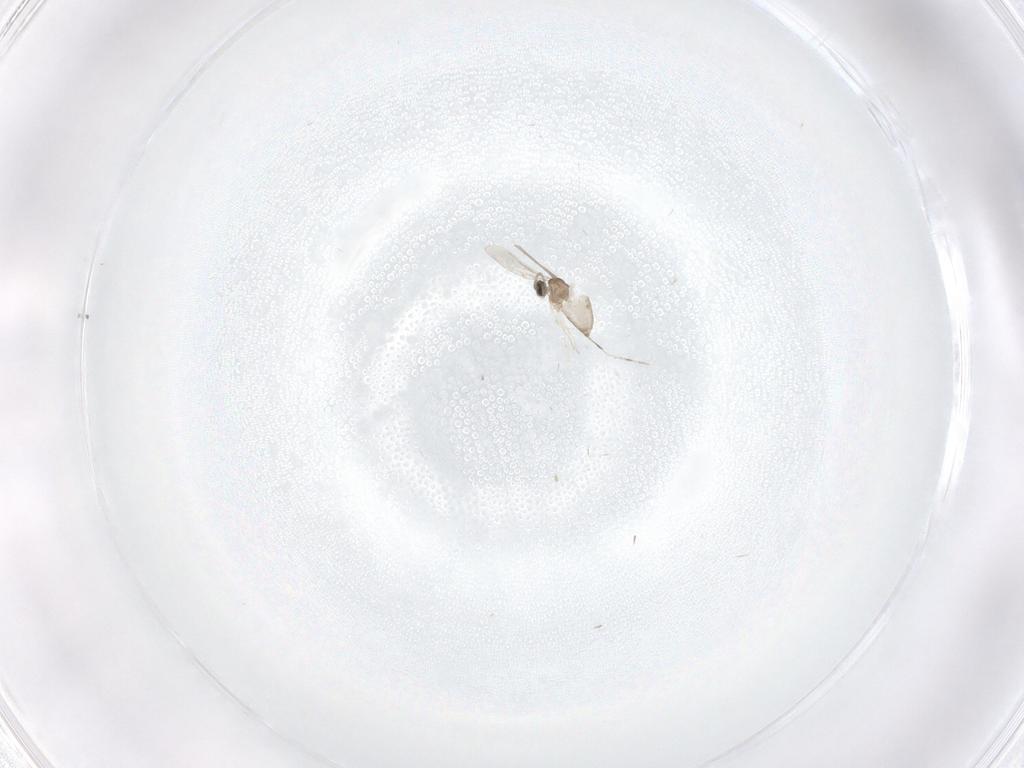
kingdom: Animalia
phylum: Arthropoda
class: Insecta
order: Diptera
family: Cecidomyiidae
